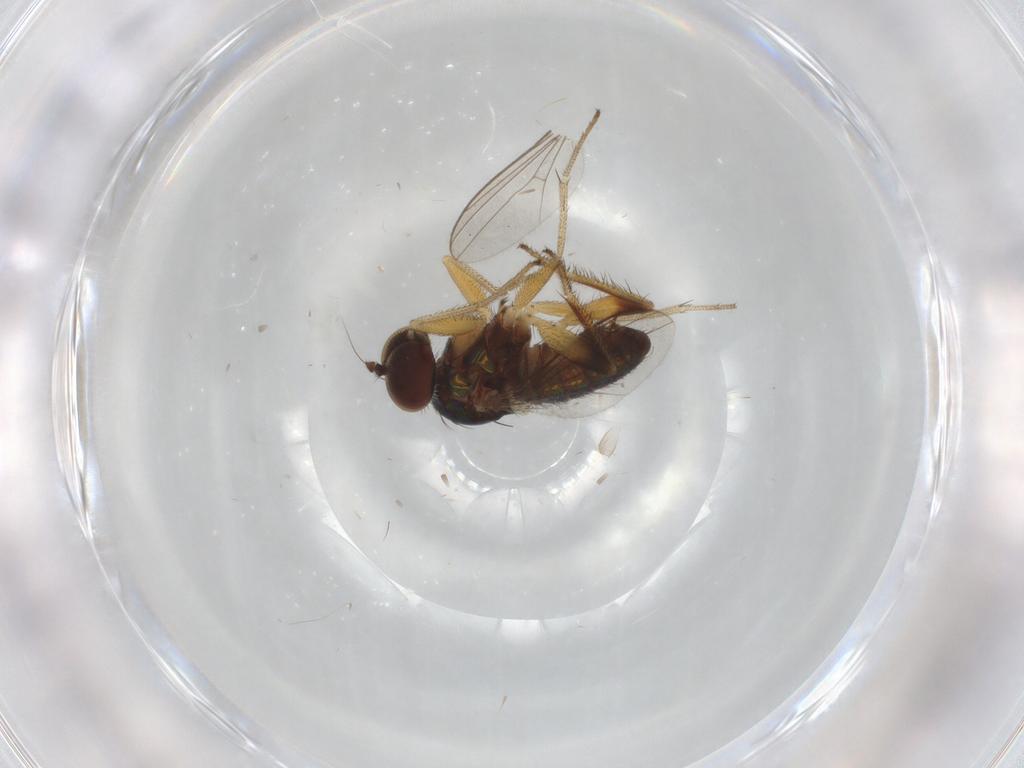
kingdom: Animalia
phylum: Arthropoda
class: Insecta
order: Diptera
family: Dolichopodidae
